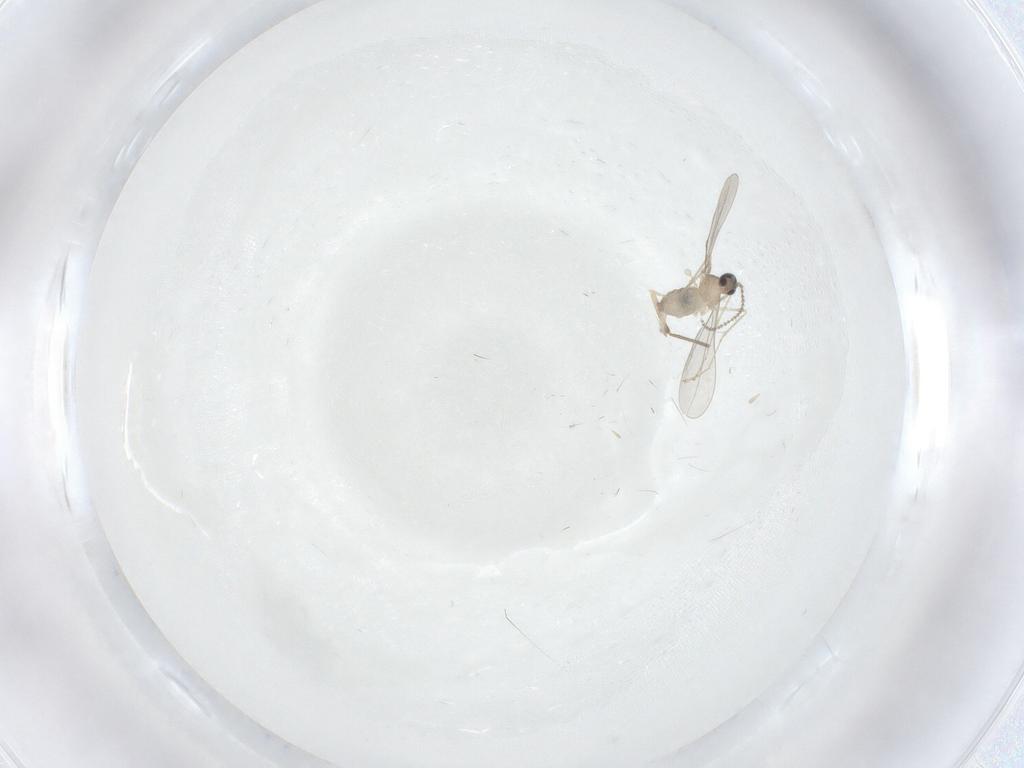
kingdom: Animalia
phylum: Arthropoda
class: Insecta
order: Diptera
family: Cecidomyiidae
